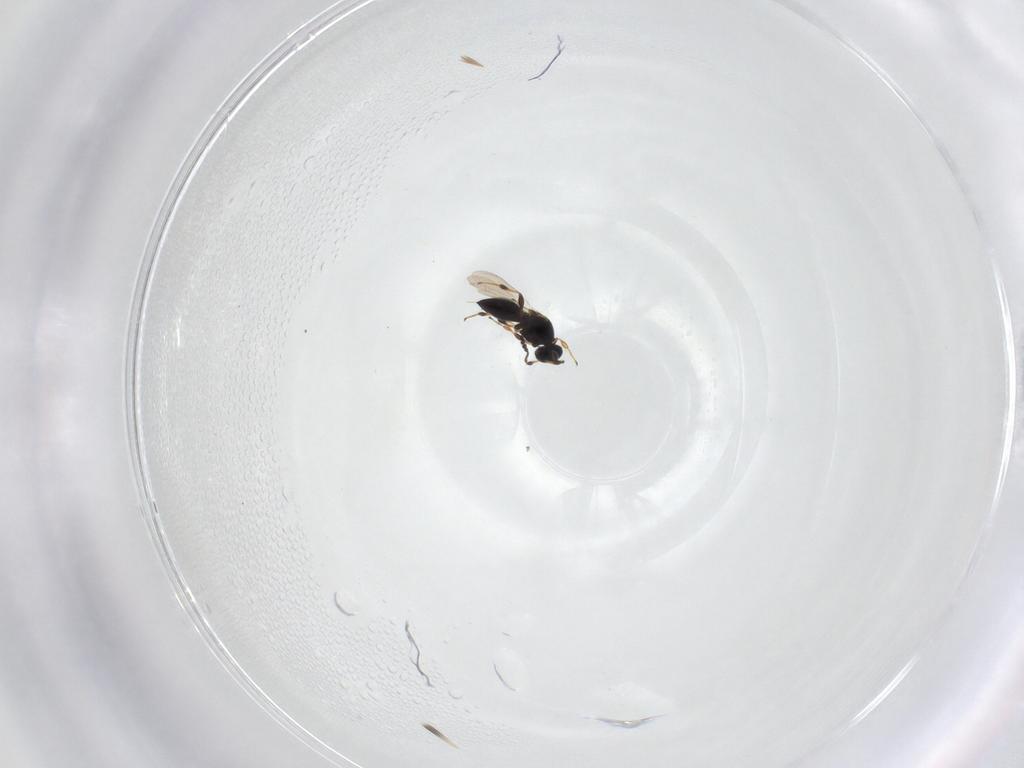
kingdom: Animalia
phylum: Arthropoda
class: Insecta
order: Hymenoptera
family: Platygastridae
